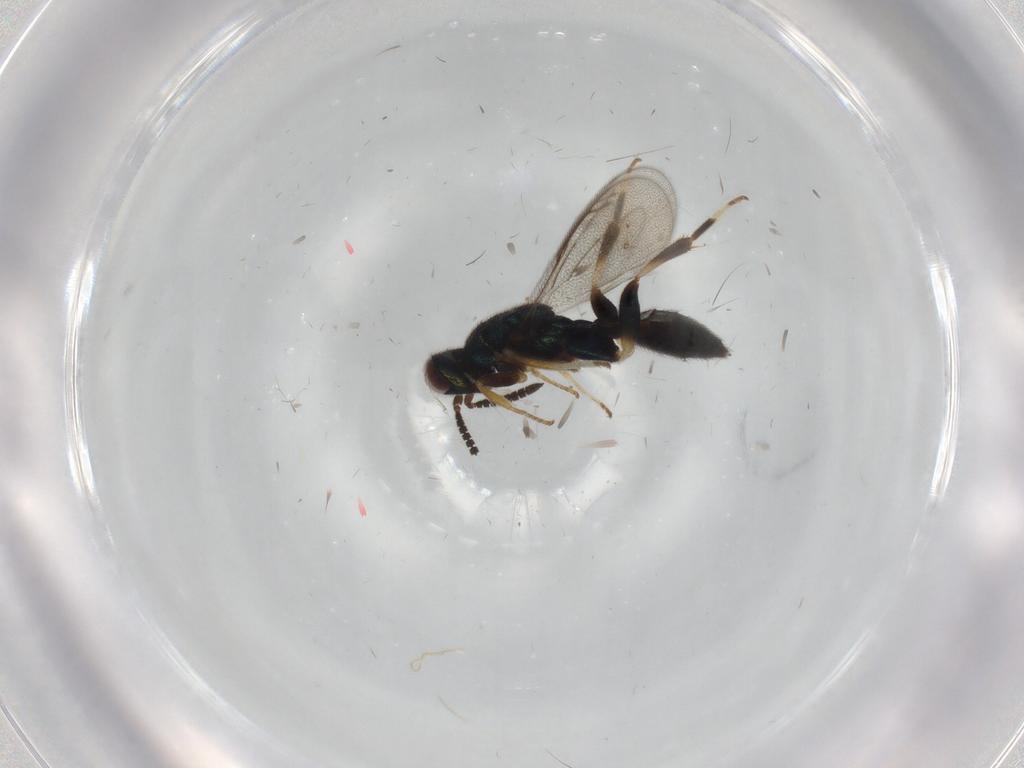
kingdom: Animalia
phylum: Arthropoda
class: Insecta
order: Hymenoptera
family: Cleonyminae
